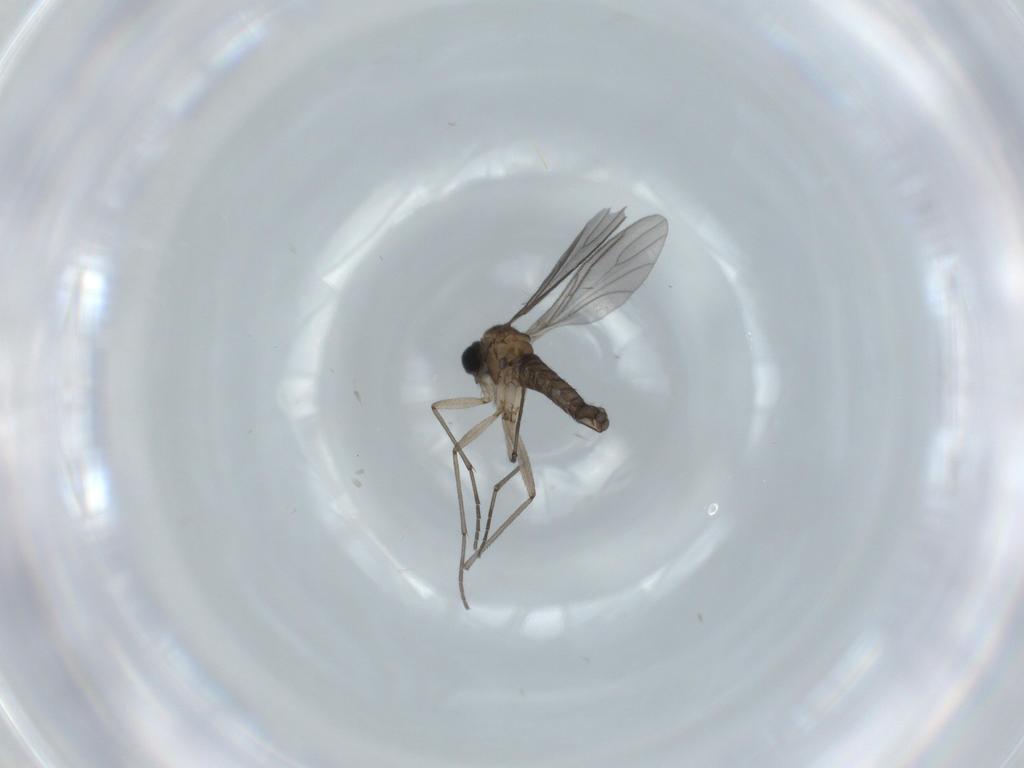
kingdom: Animalia
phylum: Arthropoda
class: Insecta
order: Diptera
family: Sciaridae
